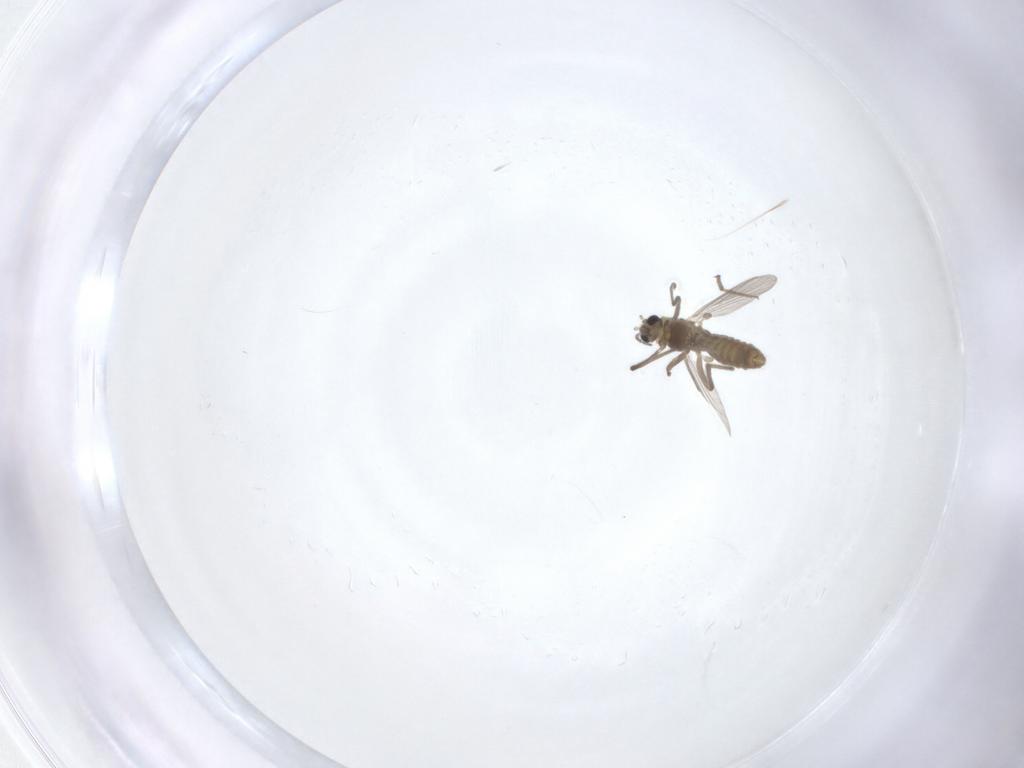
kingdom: Animalia
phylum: Arthropoda
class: Insecta
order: Diptera
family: Chironomidae
